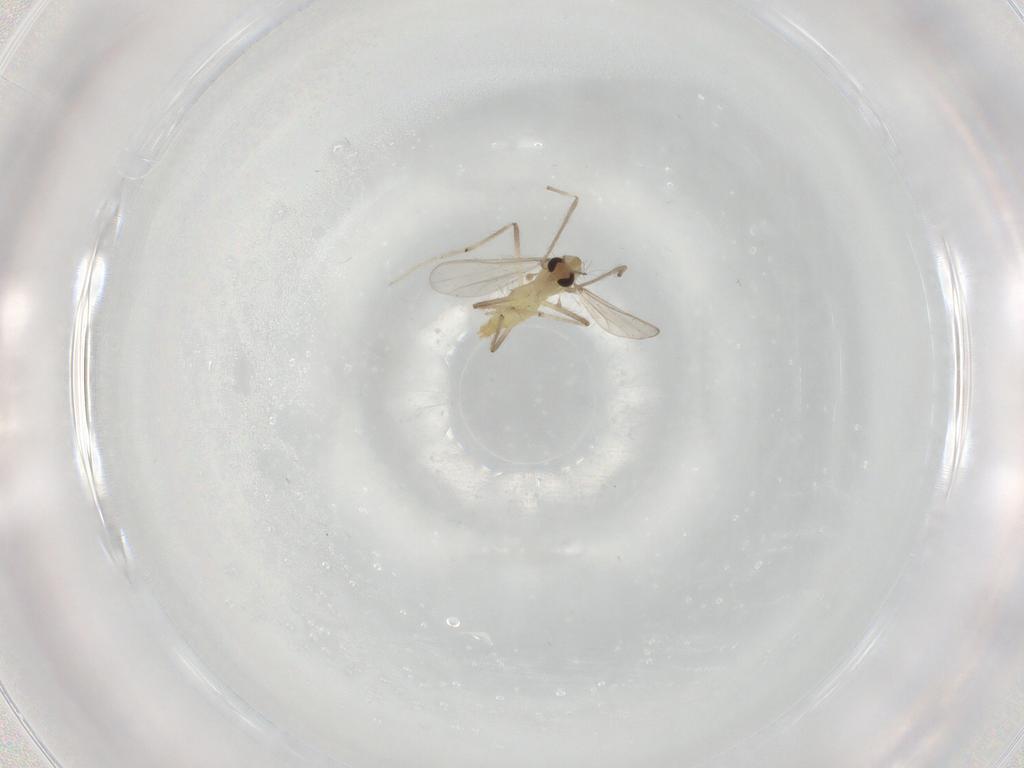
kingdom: Animalia
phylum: Arthropoda
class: Insecta
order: Diptera
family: Chironomidae
